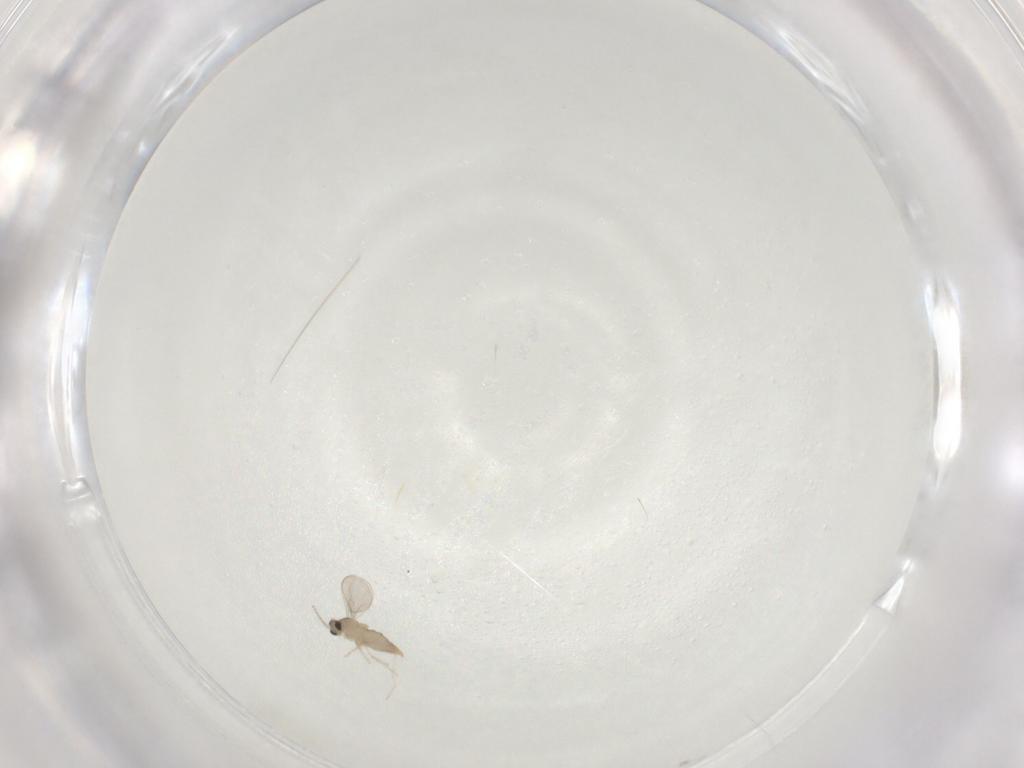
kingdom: Animalia
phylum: Arthropoda
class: Insecta
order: Diptera
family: Cecidomyiidae
